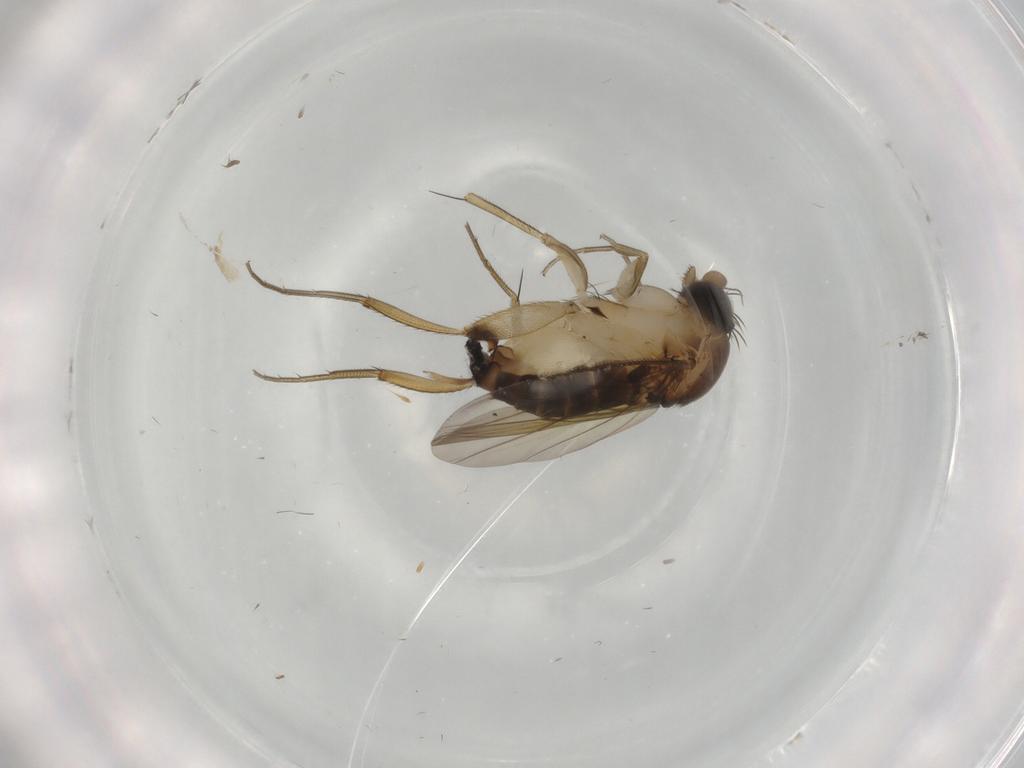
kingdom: Animalia
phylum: Arthropoda
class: Insecta
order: Diptera
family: Phoridae
